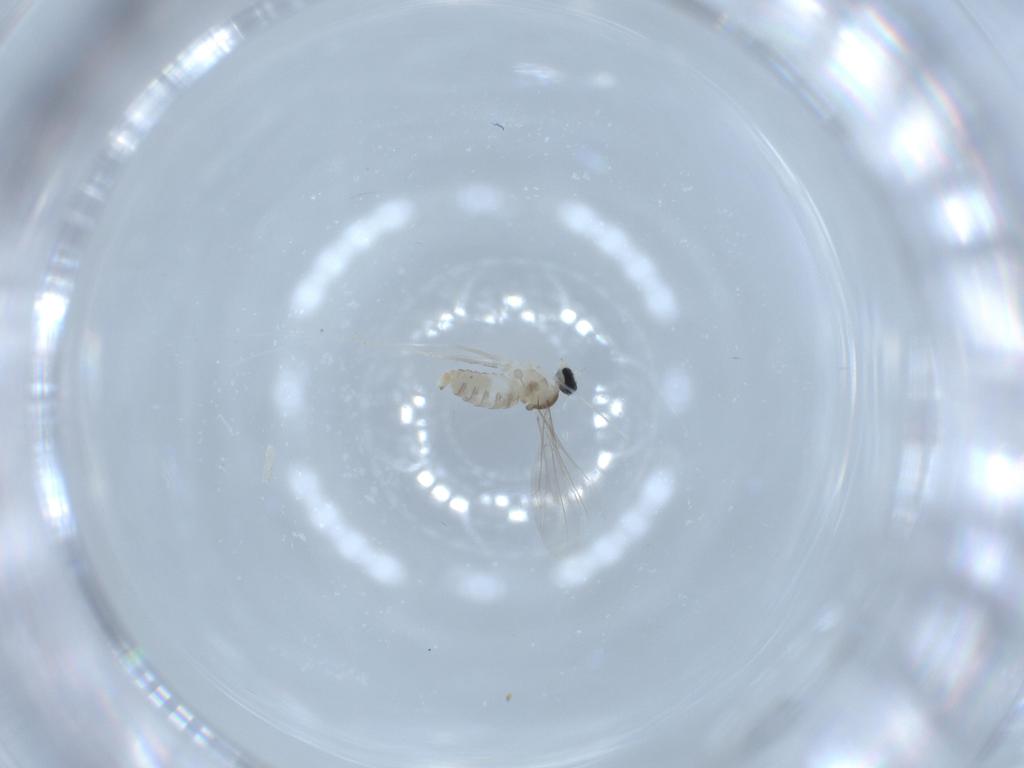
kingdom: Animalia
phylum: Arthropoda
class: Insecta
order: Diptera
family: Cecidomyiidae
